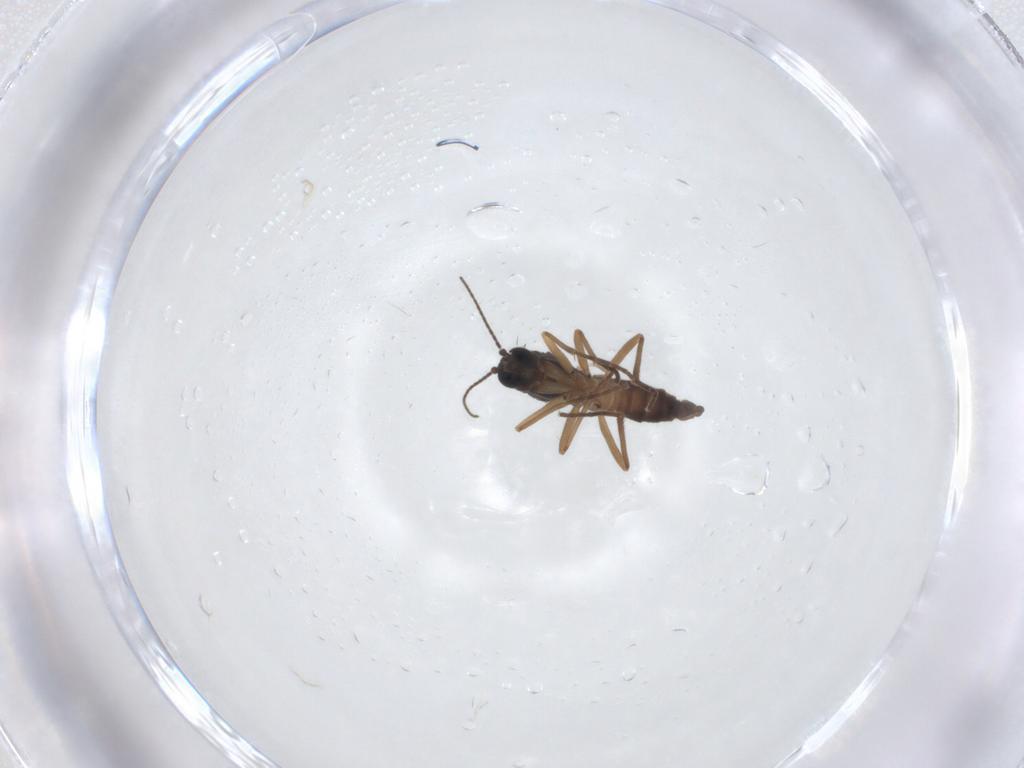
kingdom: Animalia
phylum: Arthropoda
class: Insecta
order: Diptera
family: Drosophilidae
